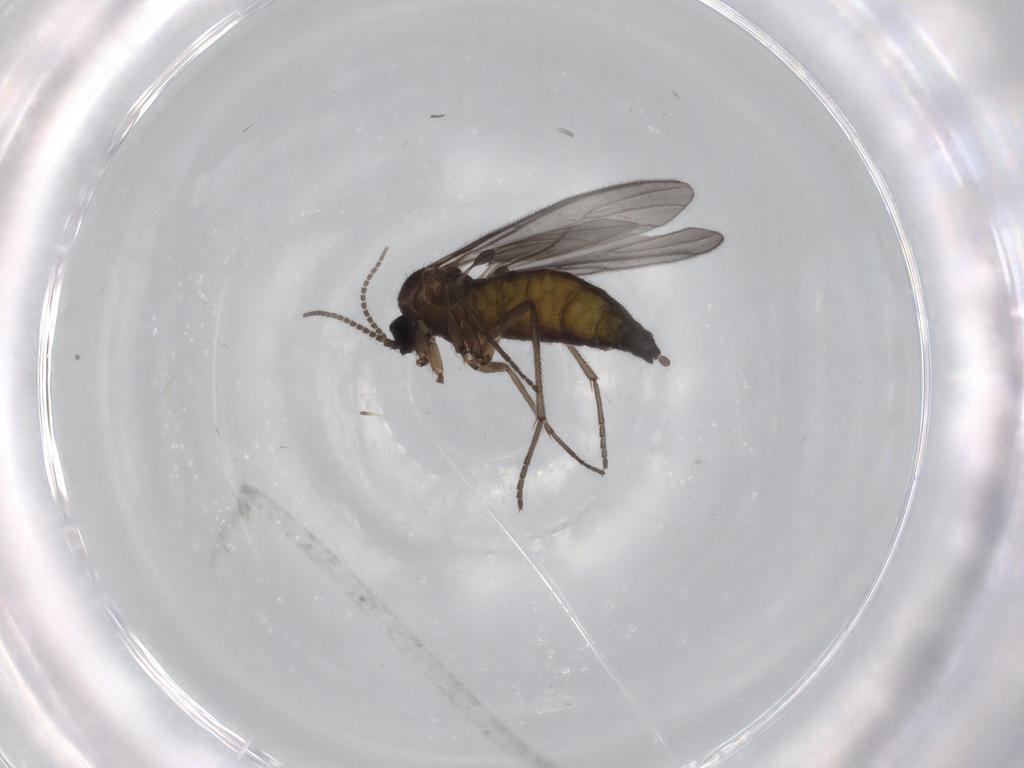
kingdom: Animalia
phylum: Arthropoda
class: Insecta
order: Diptera
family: Sciaridae
